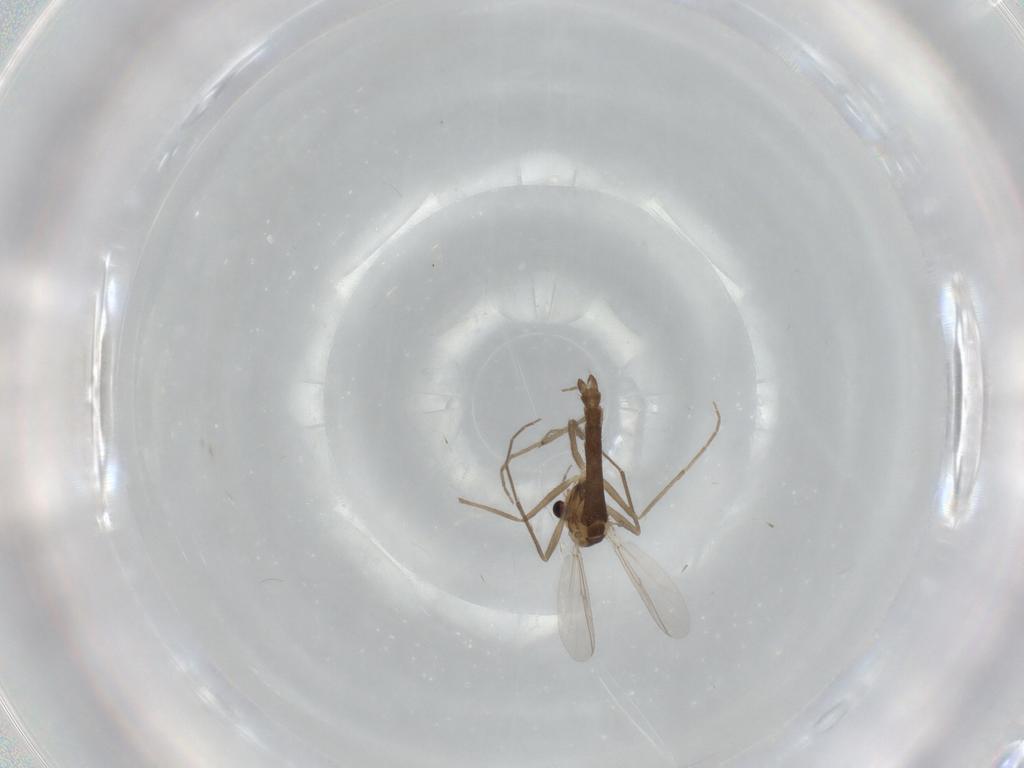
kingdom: Animalia
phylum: Arthropoda
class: Insecta
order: Diptera
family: Chironomidae
